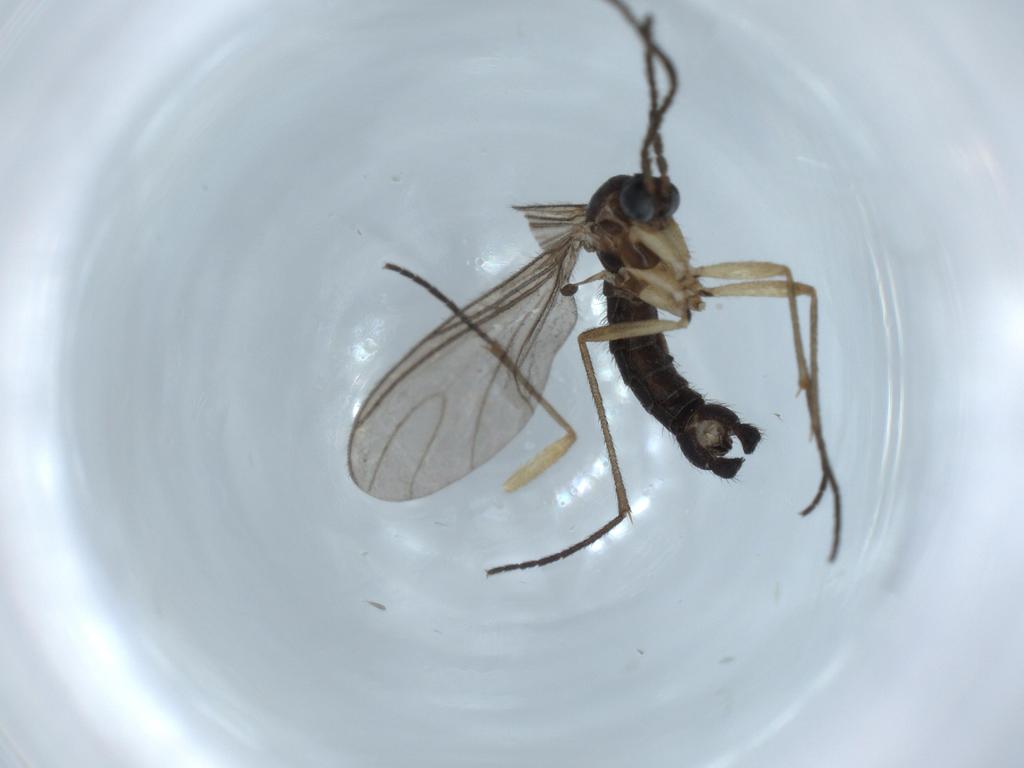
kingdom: Animalia
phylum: Arthropoda
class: Insecta
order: Diptera
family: Sciaridae
